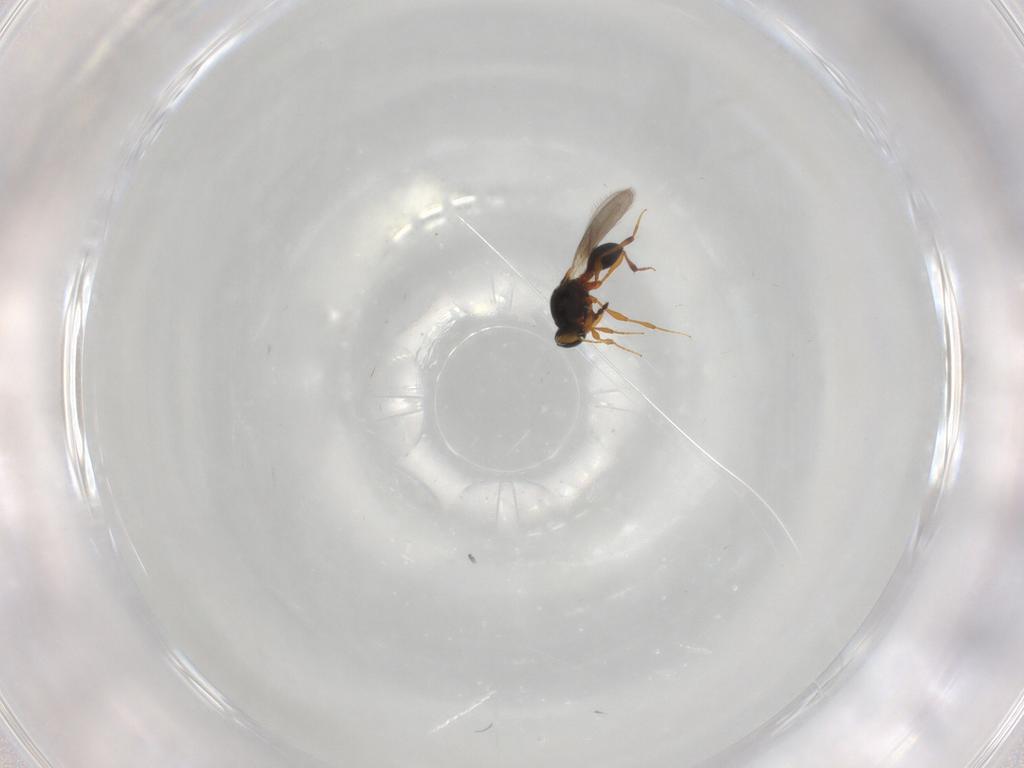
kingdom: Animalia
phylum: Arthropoda
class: Insecta
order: Hymenoptera
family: Platygastridae
